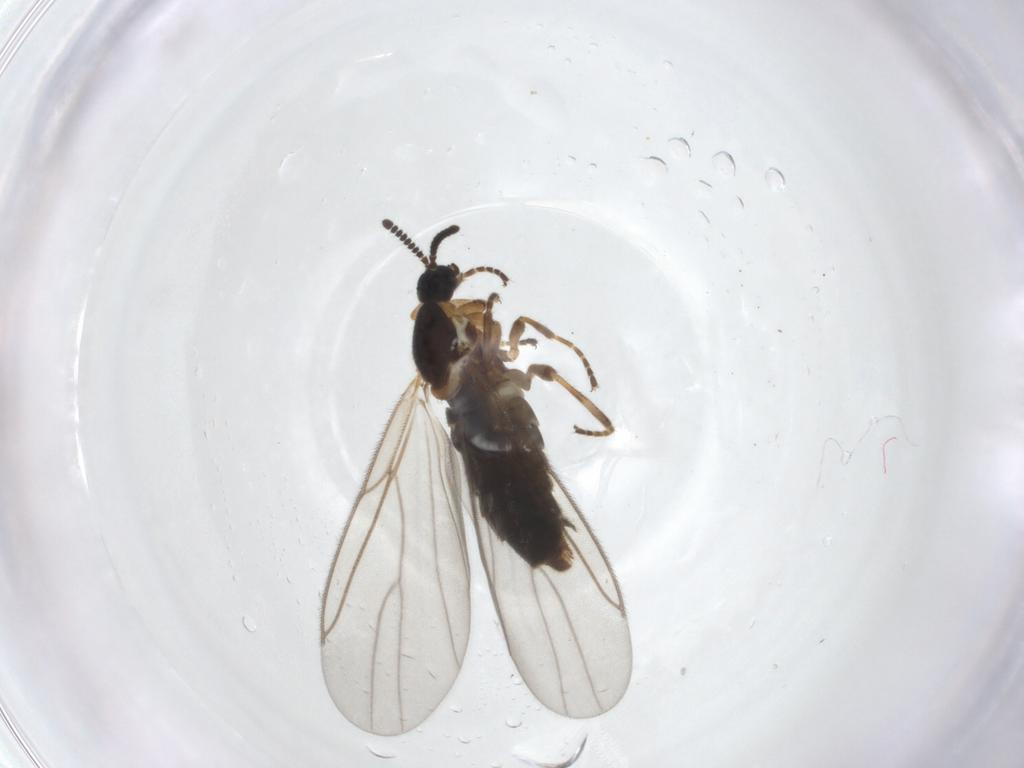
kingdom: Animalia
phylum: Arthropoda
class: Insecta
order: Diptera
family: Scatopsidae
